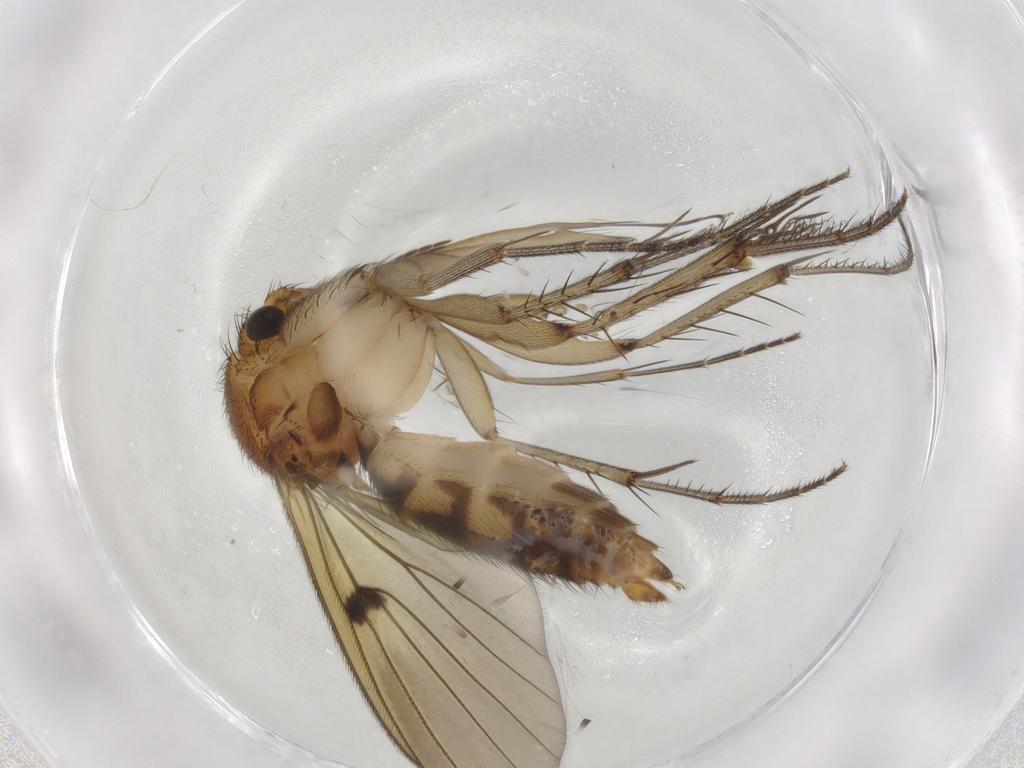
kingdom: Animalia
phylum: Arthropoda
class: Insecta
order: Diptera
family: Mycetophilidae
